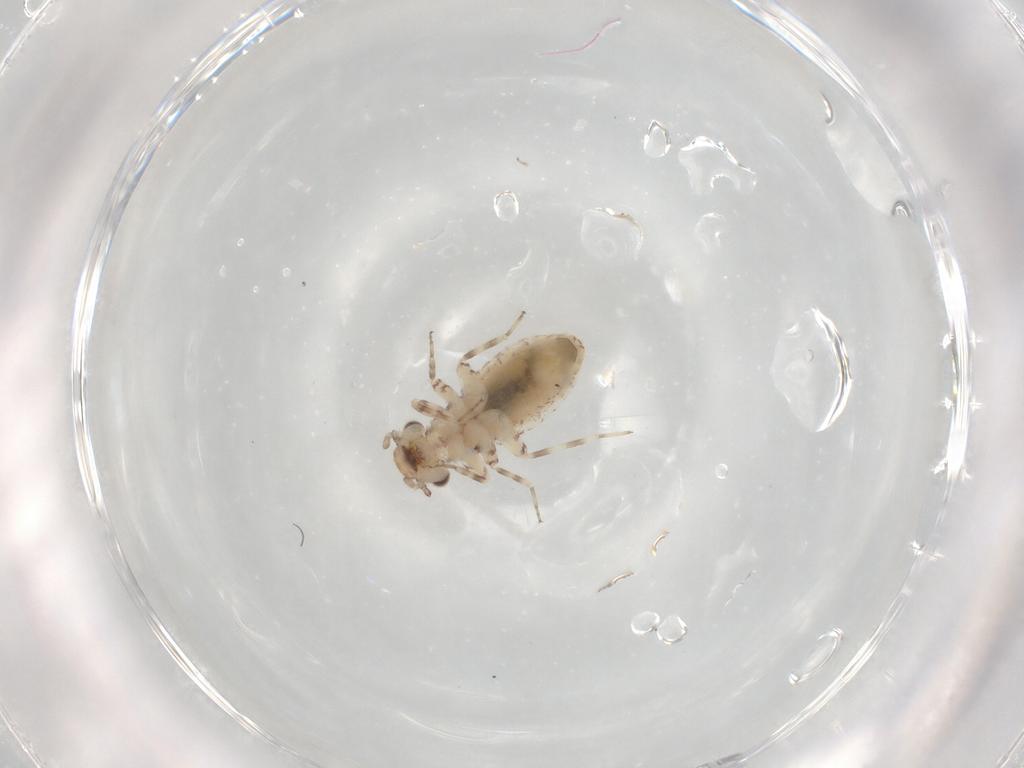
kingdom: Animalia
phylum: Arthropoda
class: Insecta
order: Psocodea
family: Trogiidae
